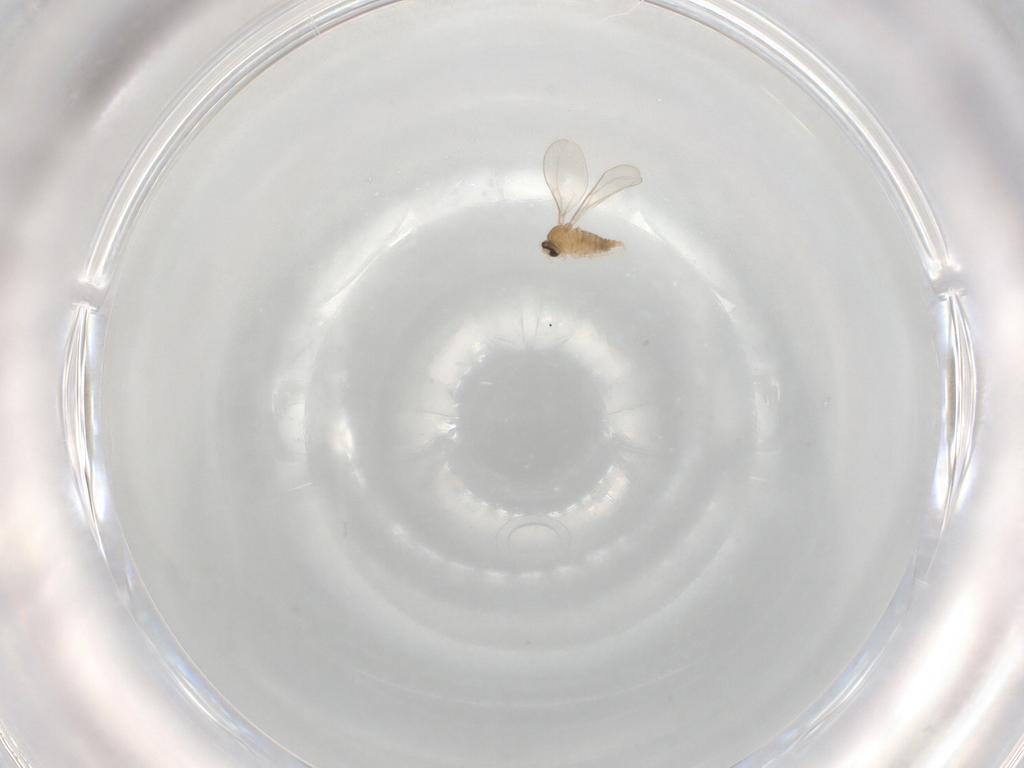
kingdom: Animalia
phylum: Arthropoda
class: Insecta
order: Diptera
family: Cecidomyiidae
